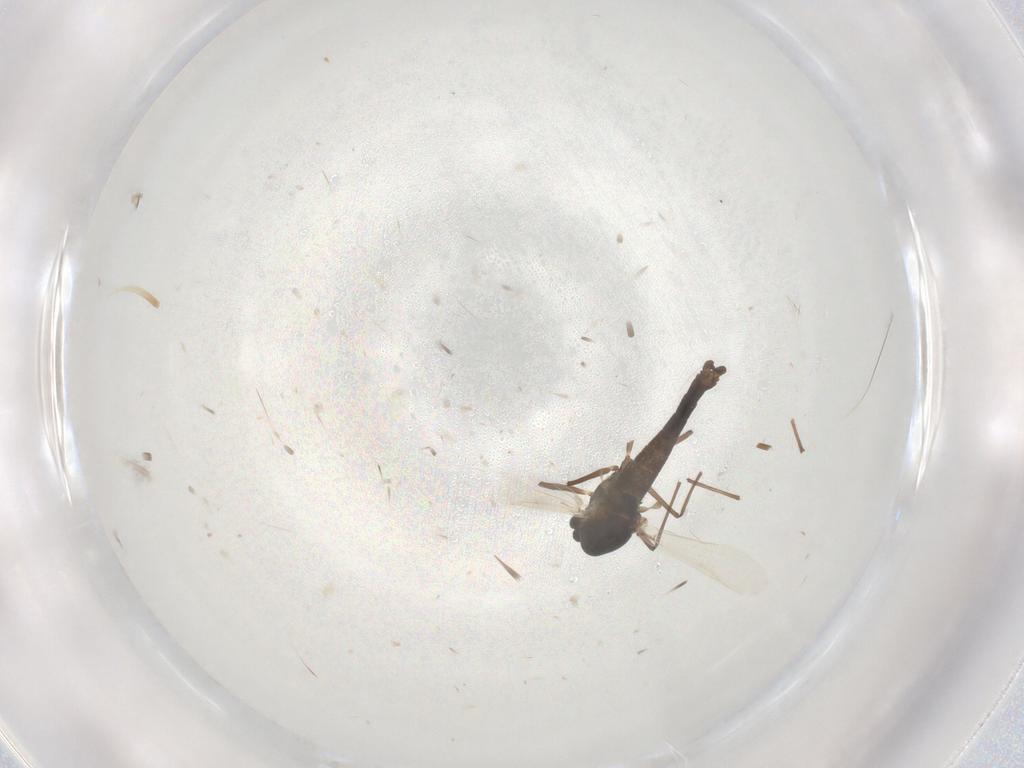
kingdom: Animalia
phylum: Arthropoda
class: Insecta
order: Diptera
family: Chironomidae
